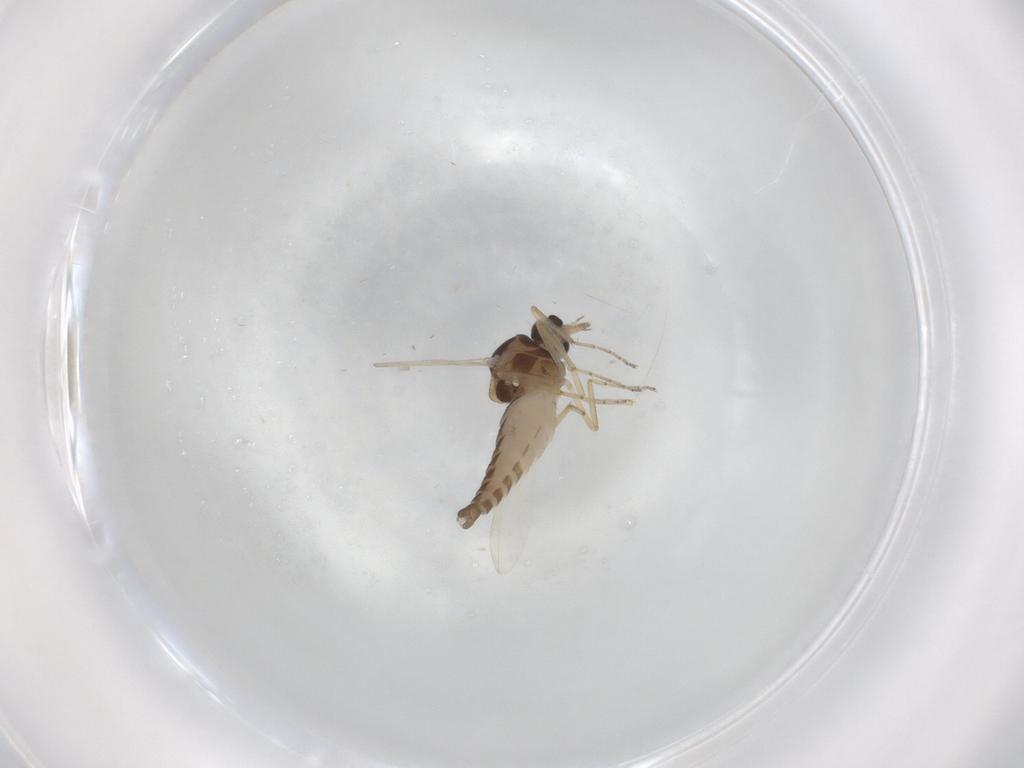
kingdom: Animalia
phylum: Arthropoda
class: Insecta
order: Diptera
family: Ceratopogonidae
